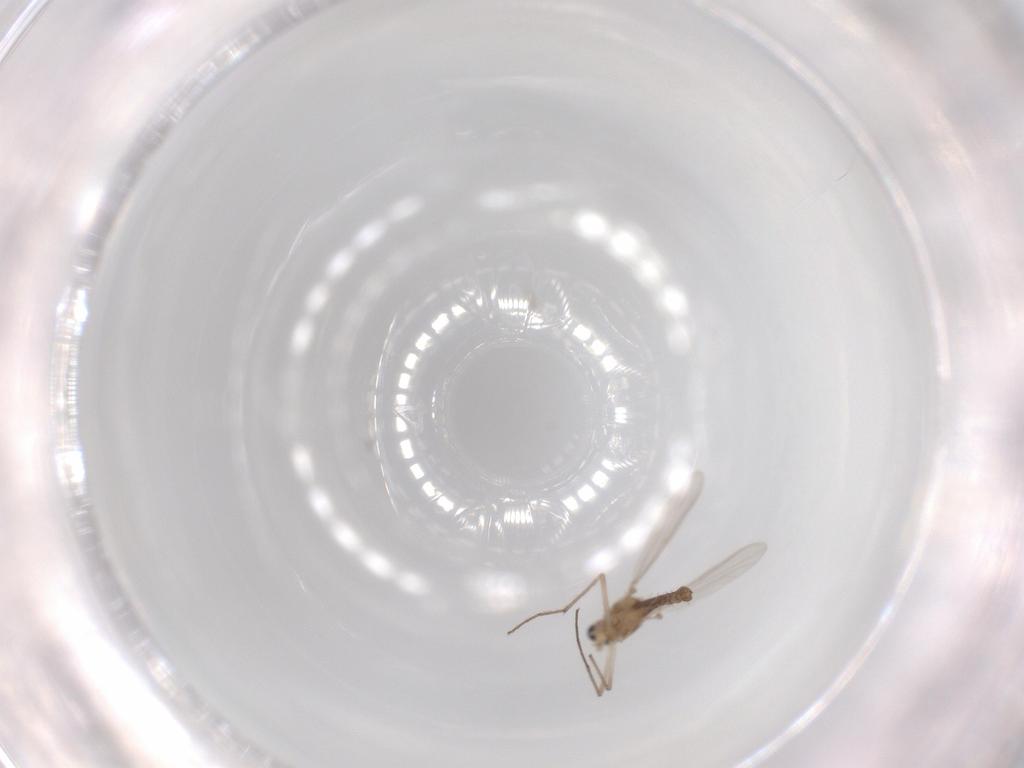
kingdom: Animalia
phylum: Arthropoda
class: Insecta
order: Diptera
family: Chironomidae
